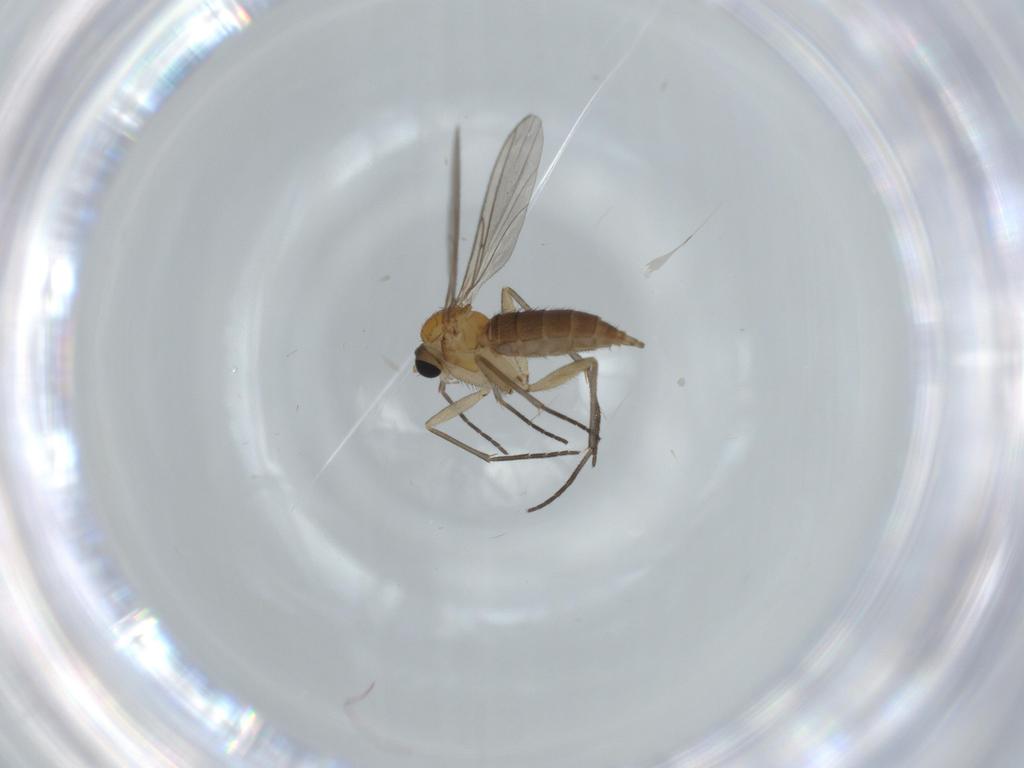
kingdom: Animalia
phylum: Arthropoda
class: Insecta
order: Diptera
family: Sciaridae
